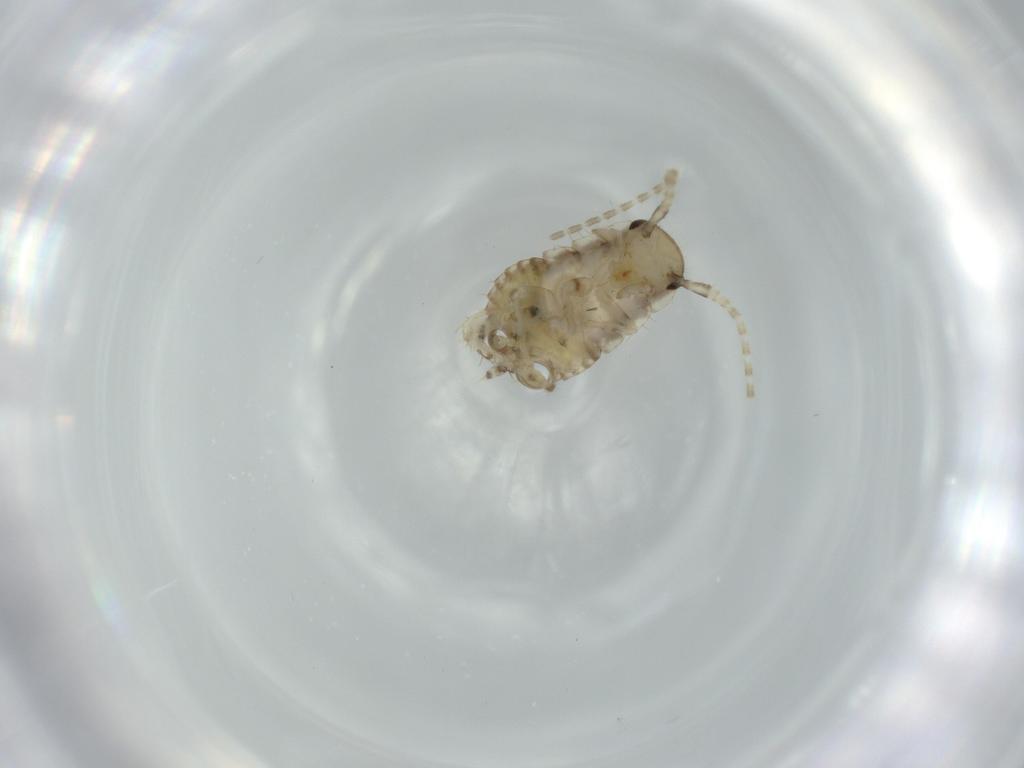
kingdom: Animalia
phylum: Arthropoda
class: Insecta
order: Blattodea
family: Ectobiidae
